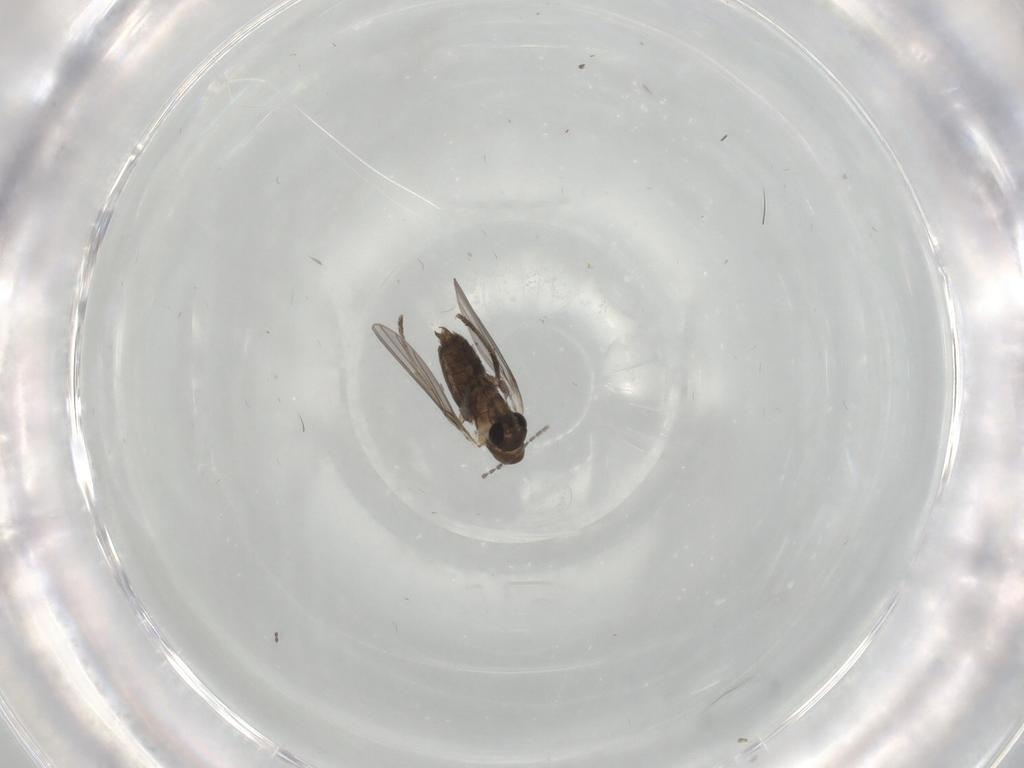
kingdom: Animalia
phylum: Arthropoda
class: Insecta
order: Diptera
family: Cecidomyiidae
